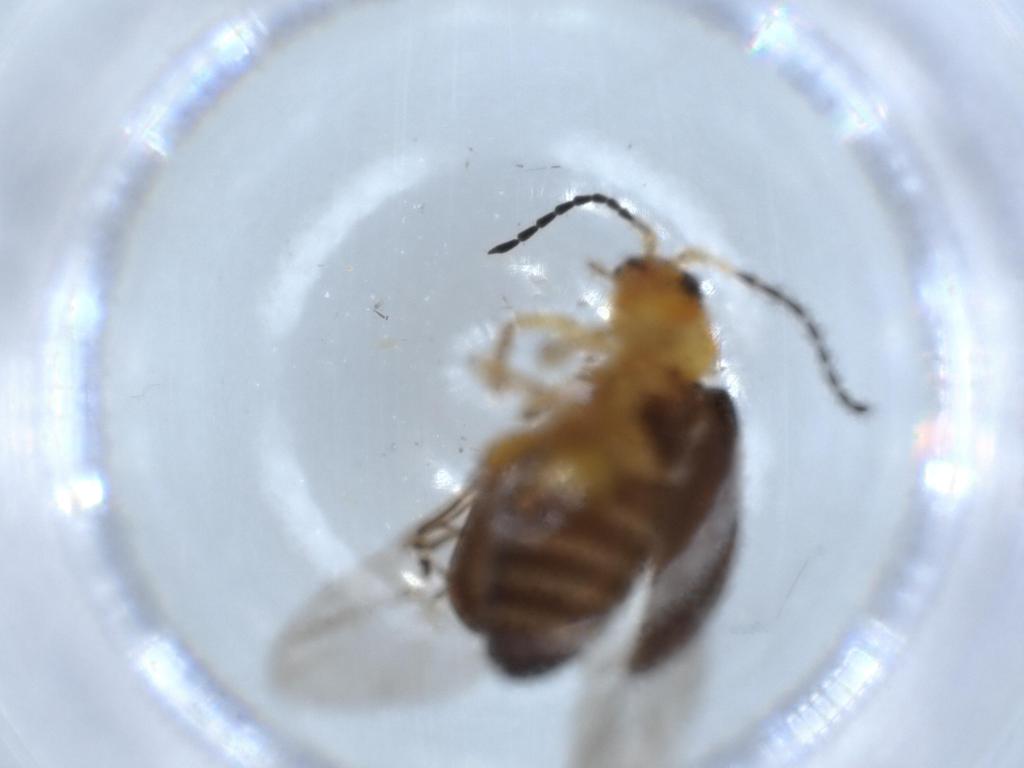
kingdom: Animalia
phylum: Arthropoda
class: Insecta
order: Coleoptera
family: Chrysomelidae
